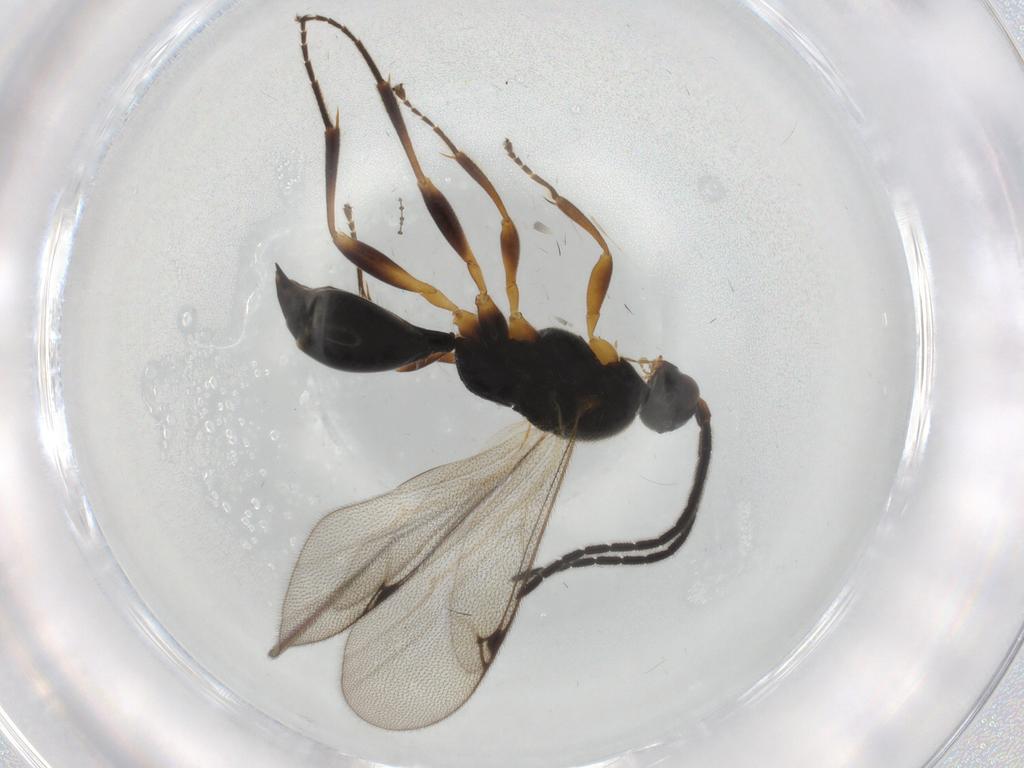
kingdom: Animalia
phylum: Arthropoda
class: Insecta
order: Hymenoptera
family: Proctotrupidae
